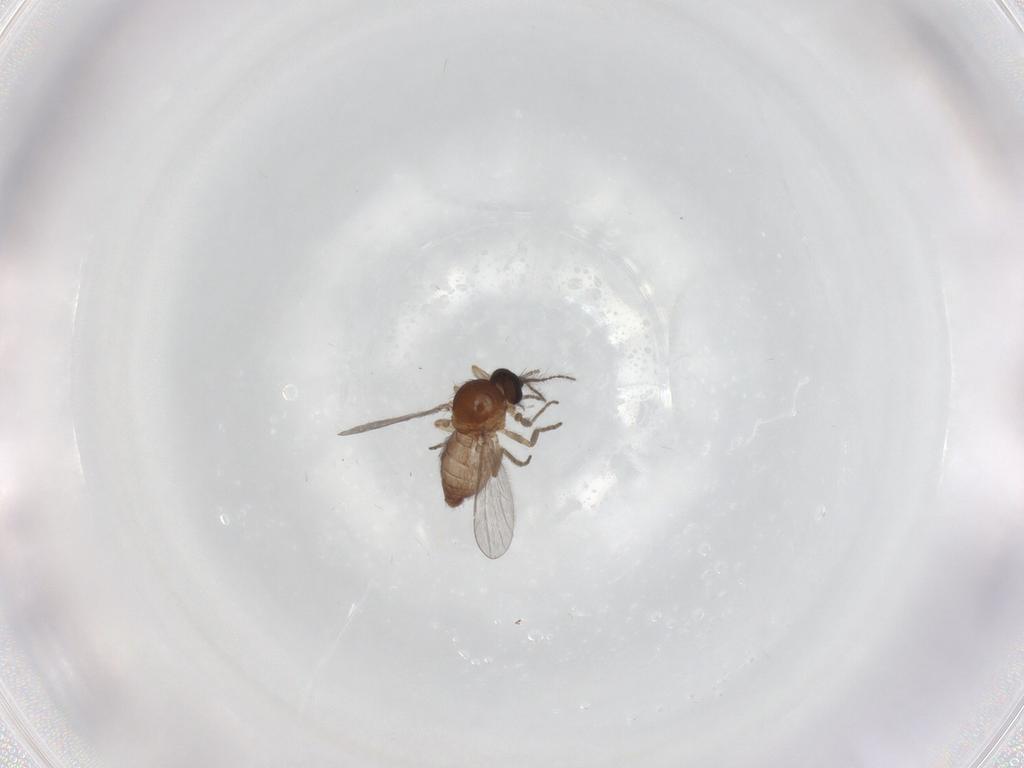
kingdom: Animalia
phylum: Arthropoda
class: Insecta
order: Diptera
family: Ceratopogonidae
